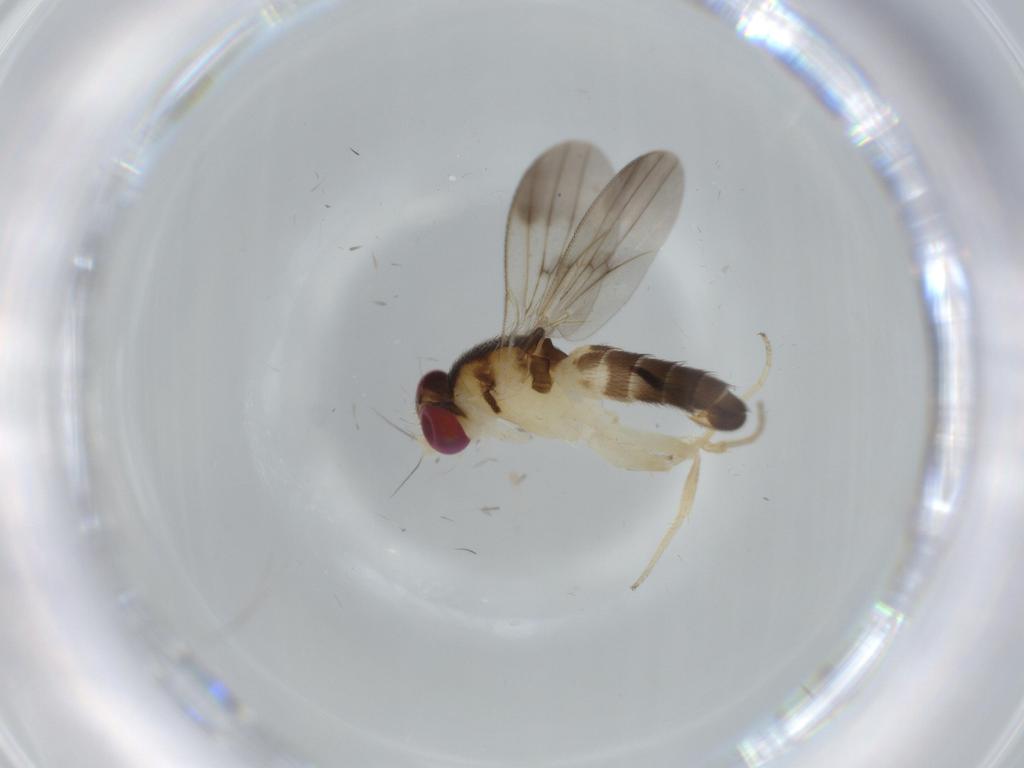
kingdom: Animalia
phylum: Arthropoda
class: Insecta
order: Diptera
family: Clusiidae
